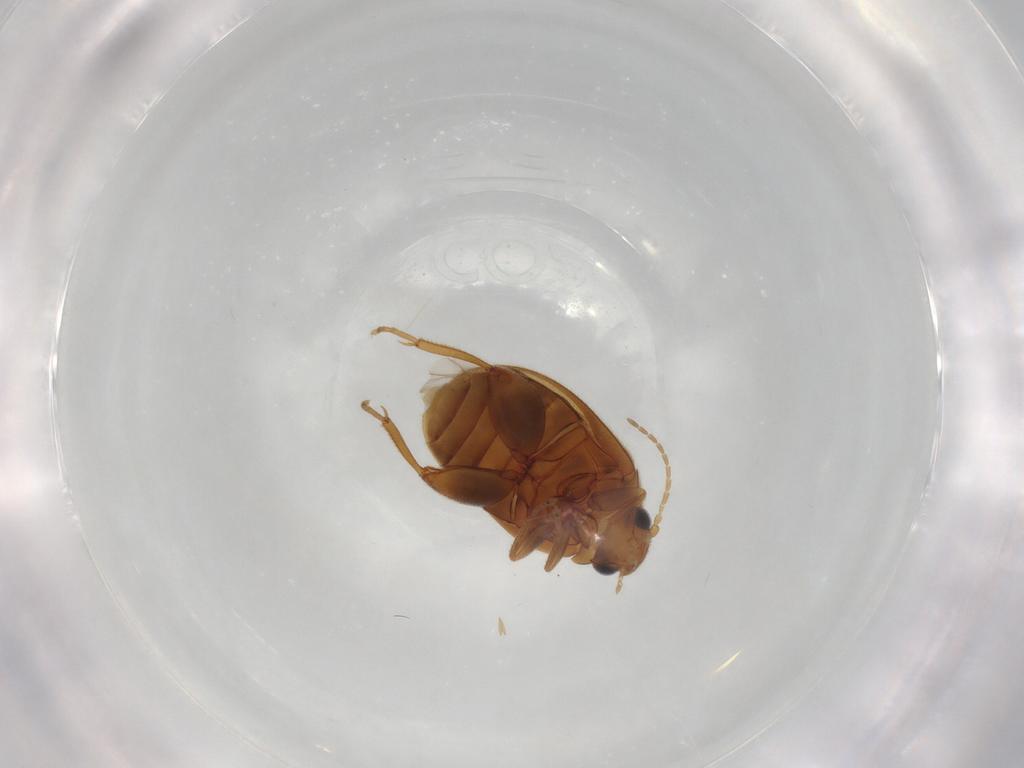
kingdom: Animalia
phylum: Arthropoda
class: Insecta
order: Coleoptera
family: Scirtidae
